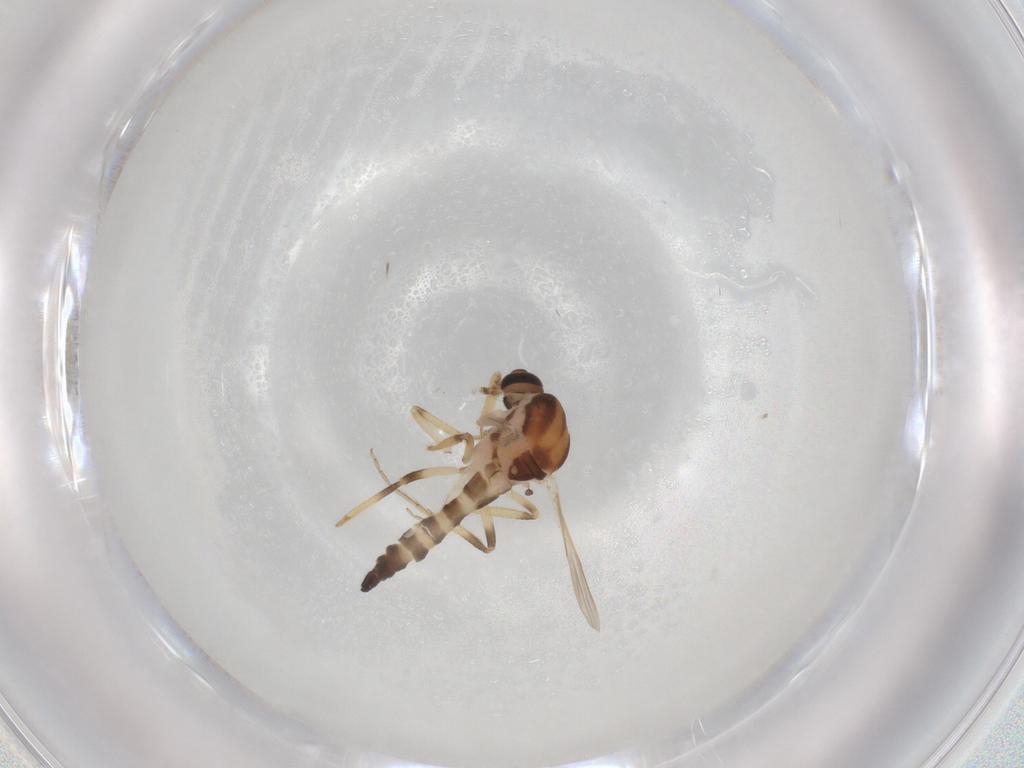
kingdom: Animalia
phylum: Arthropoda
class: Insecta
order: Diptera
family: Ceratopogonidae
